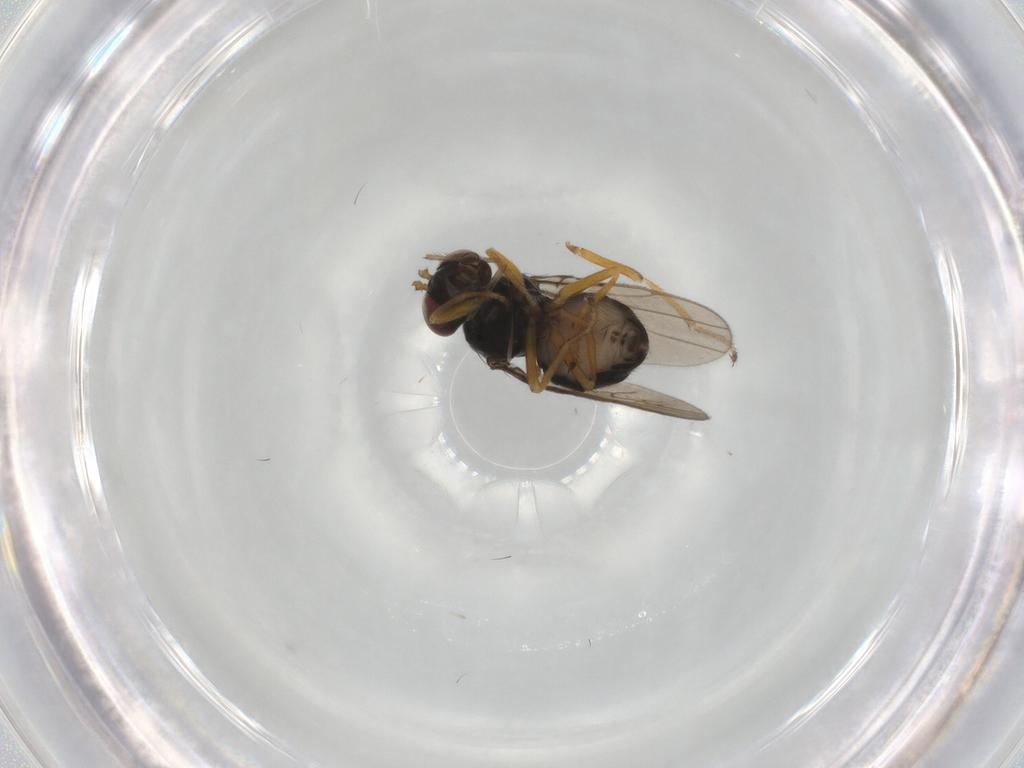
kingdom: Animalia
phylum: Arthropoda
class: Insecta
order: Diptera
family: Ephydridae
